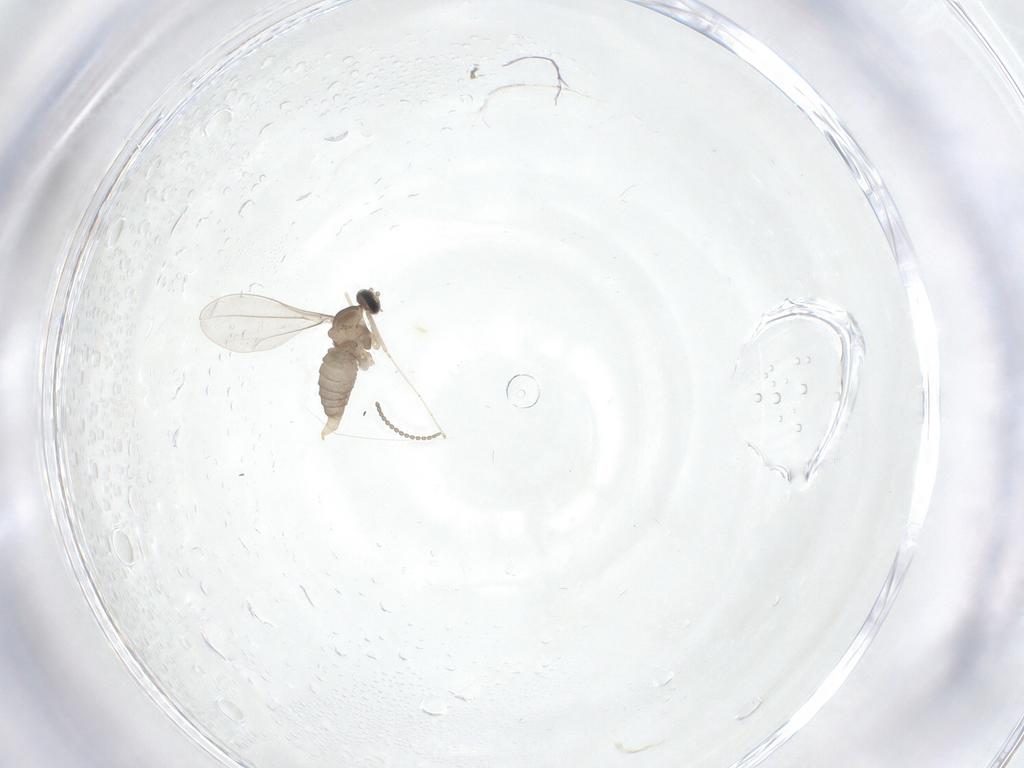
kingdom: Animalia
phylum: Arthropoda
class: Insecta
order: Diptera
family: Cecidomyiidae
